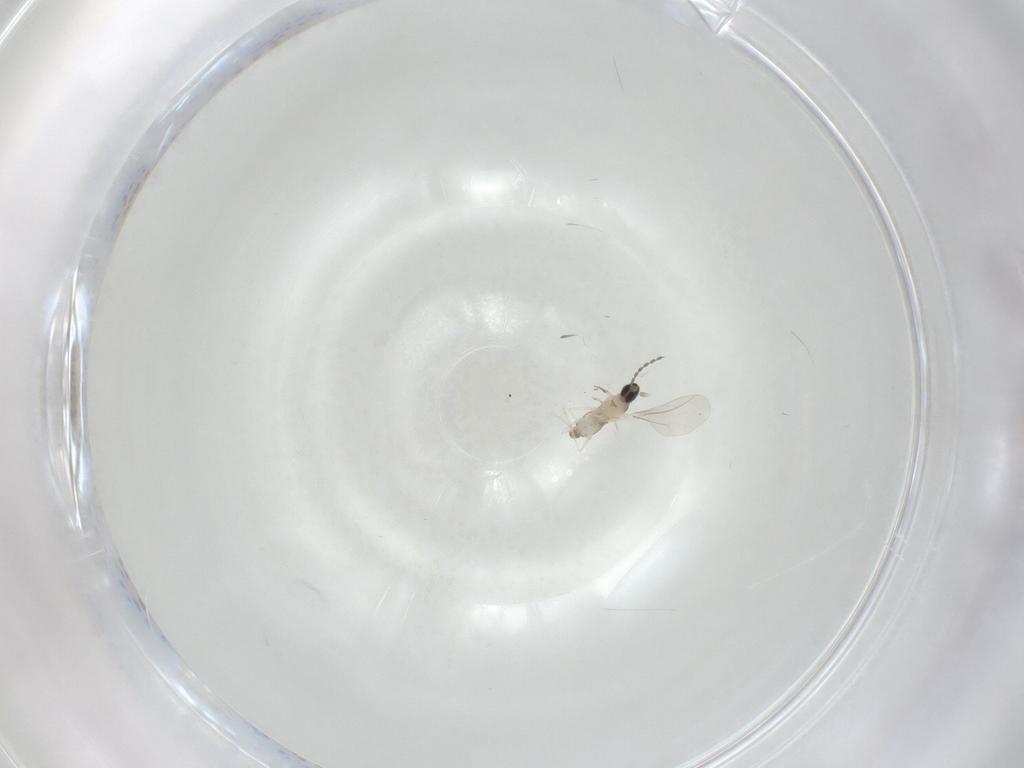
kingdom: Animalia
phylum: Arthropoda
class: Insecta
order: Diptera
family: Cecidomyiidae
